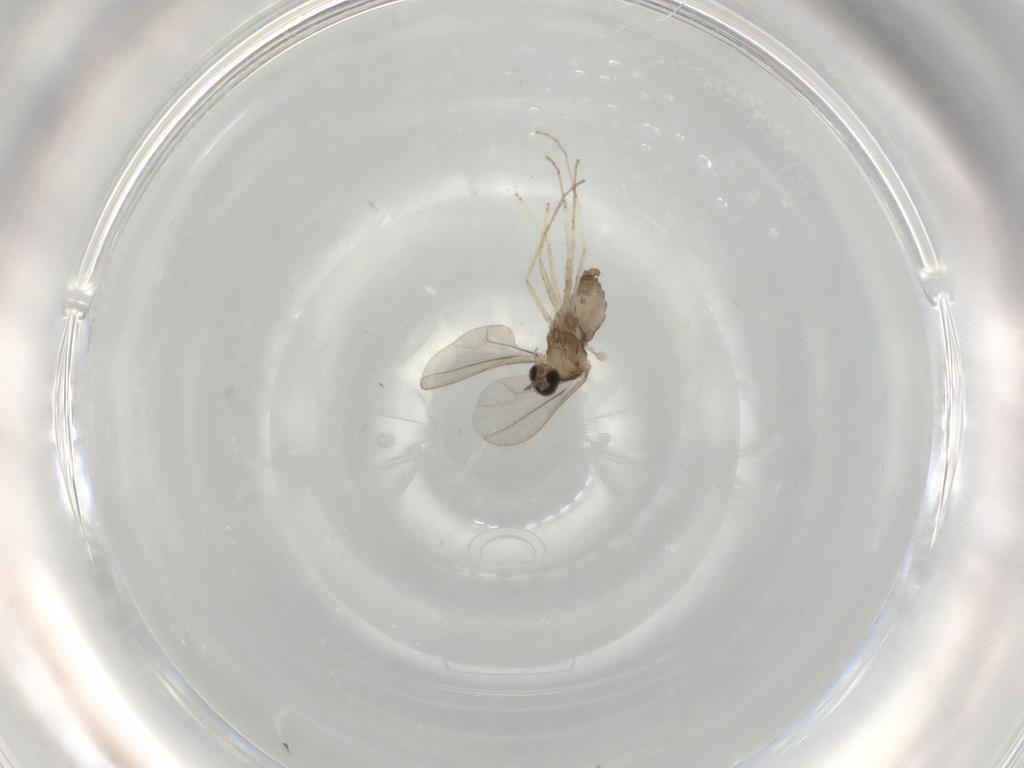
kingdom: Animalia
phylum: Arthropoda
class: Insecta
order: Diptera
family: Cecidomyiidae
